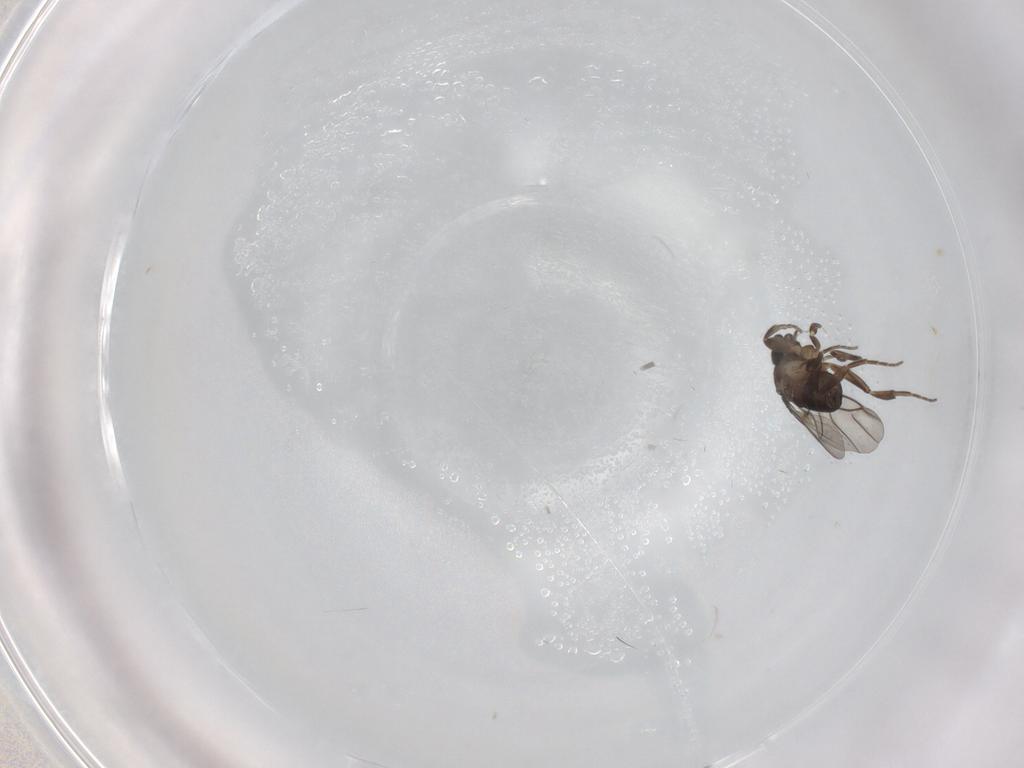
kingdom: Animalia
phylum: Arthropoda
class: Insecta
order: Diptera
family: Phoridae
